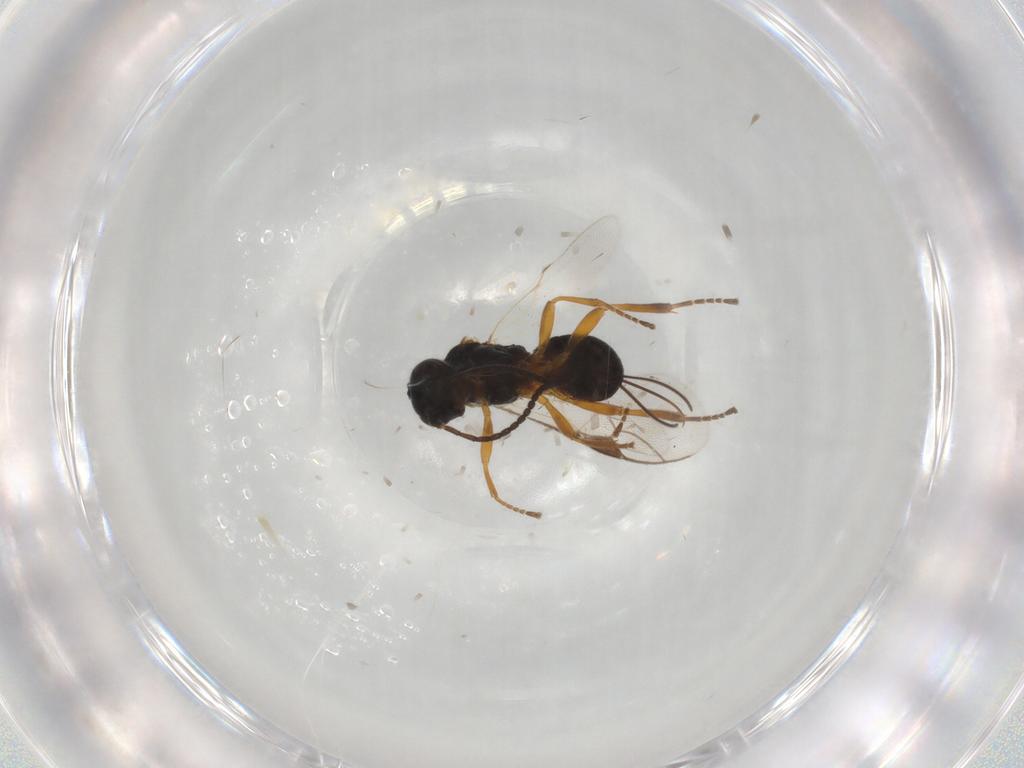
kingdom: Animalia
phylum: Arthropoda
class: Insecta
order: Hymenoptera
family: Braconidae
